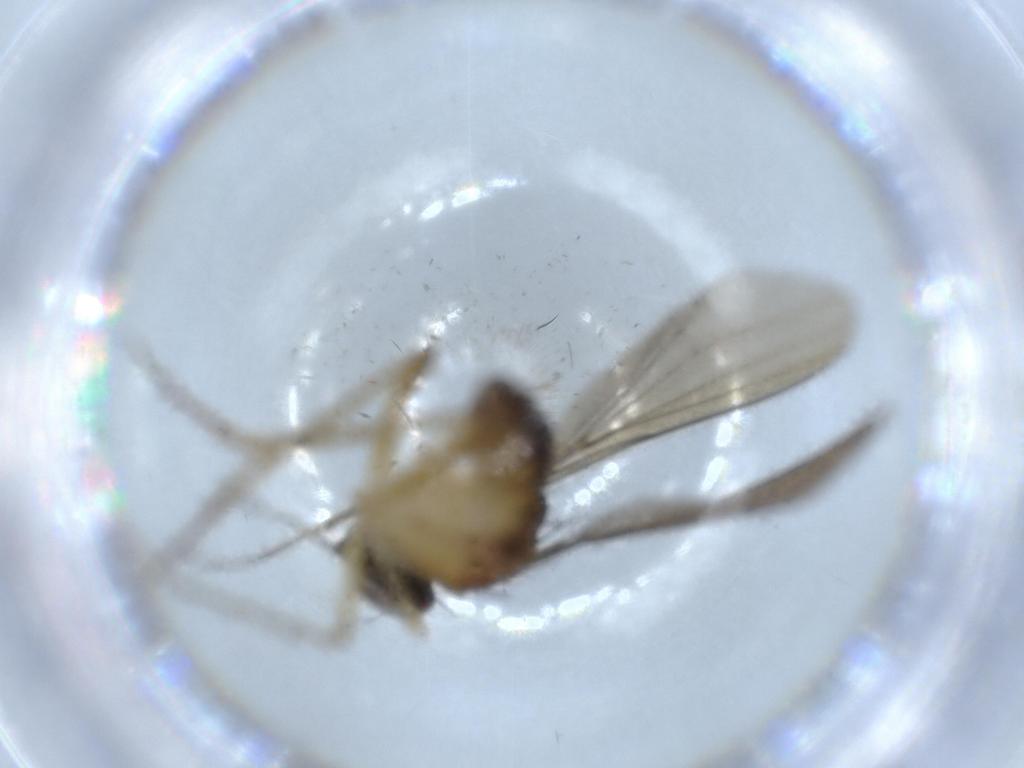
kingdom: Animalia
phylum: Arthropoda
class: Insecta
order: Diptera
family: Dolichopodidae
